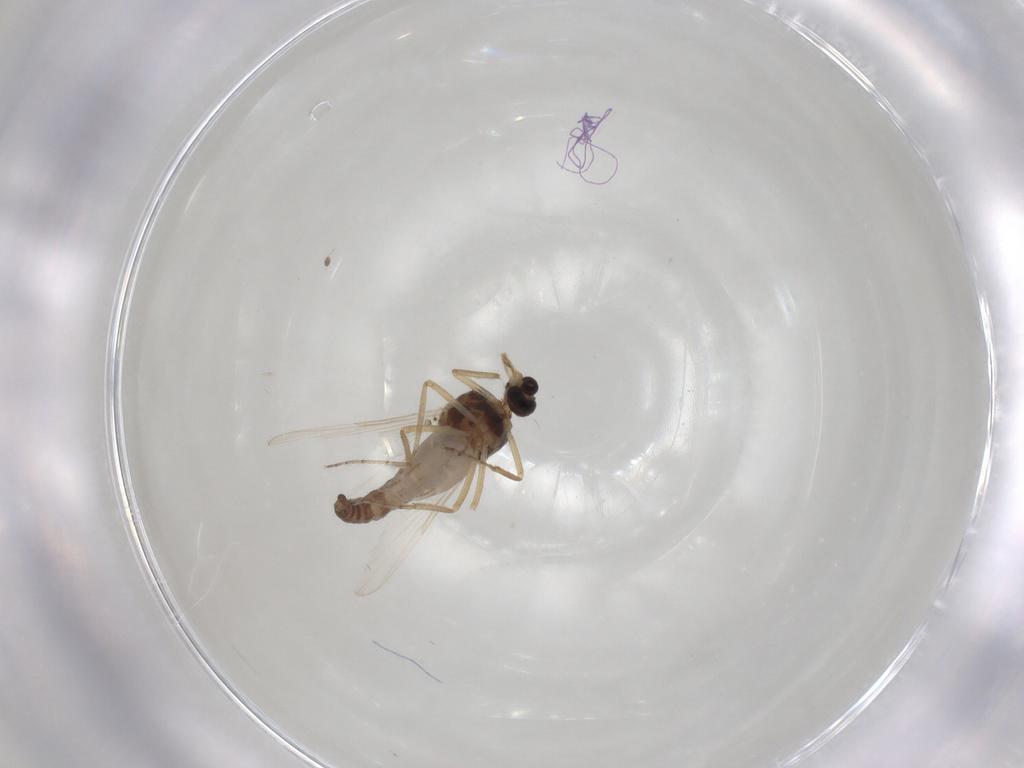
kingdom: Animalia
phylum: Arthropoda
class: Insecta
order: Diptera
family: Ceratopogonidae
